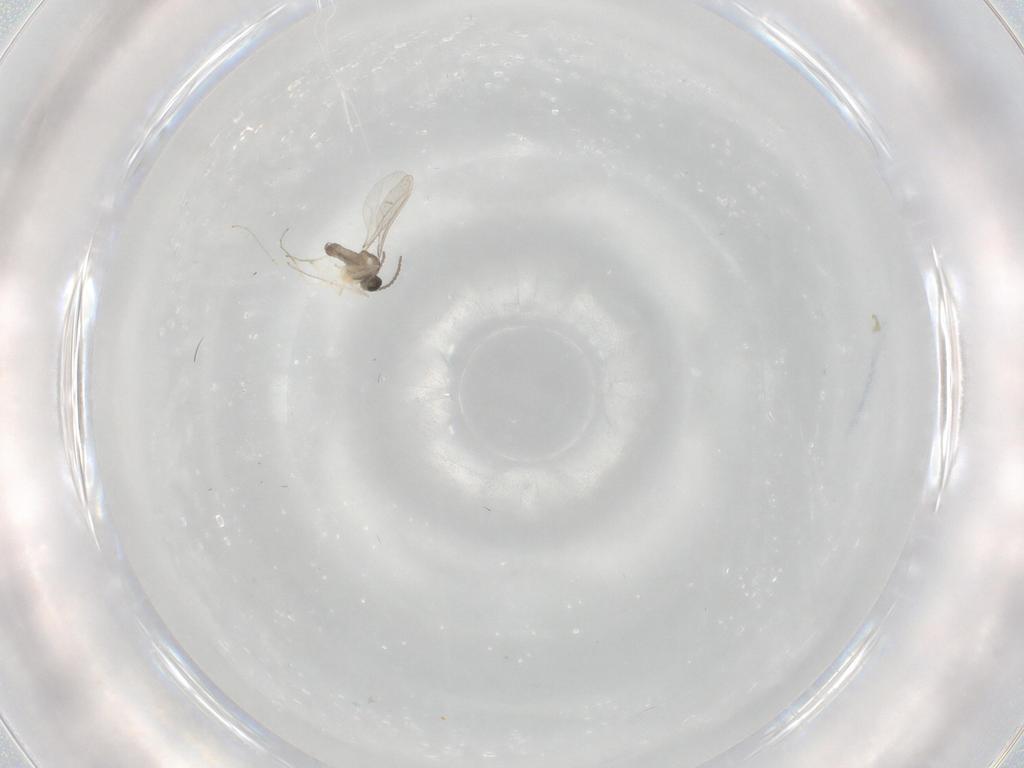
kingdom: Animalia
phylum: Arthropoda
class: Insecta
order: Diptera
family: Cecidomyiidae
